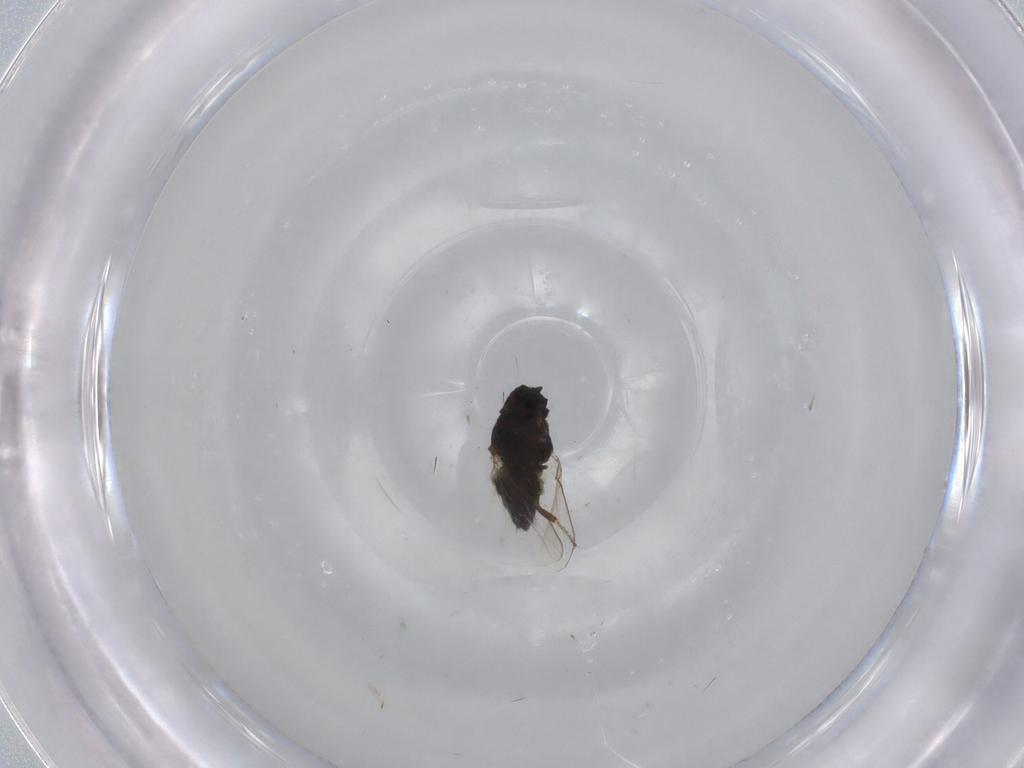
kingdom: Animalia
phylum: Arthropoda
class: Insecta
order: Diptera
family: Milichiidae
